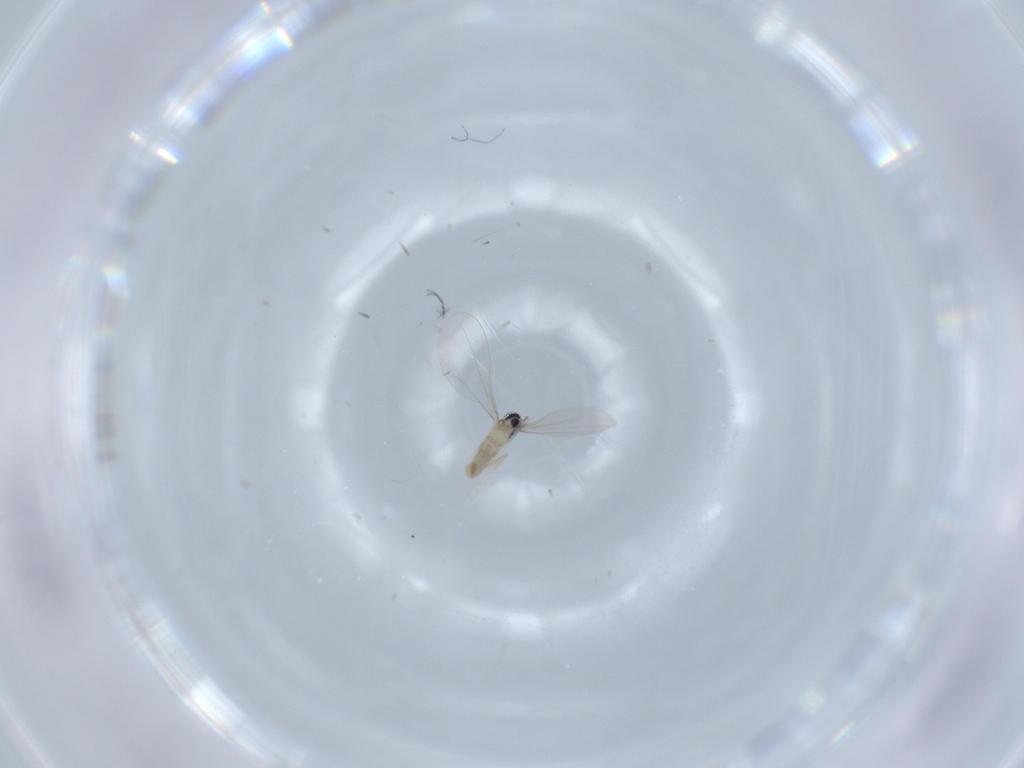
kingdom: Animalia
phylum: Arthropoda
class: Insecta
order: Diptera
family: Cecidomyiidae
